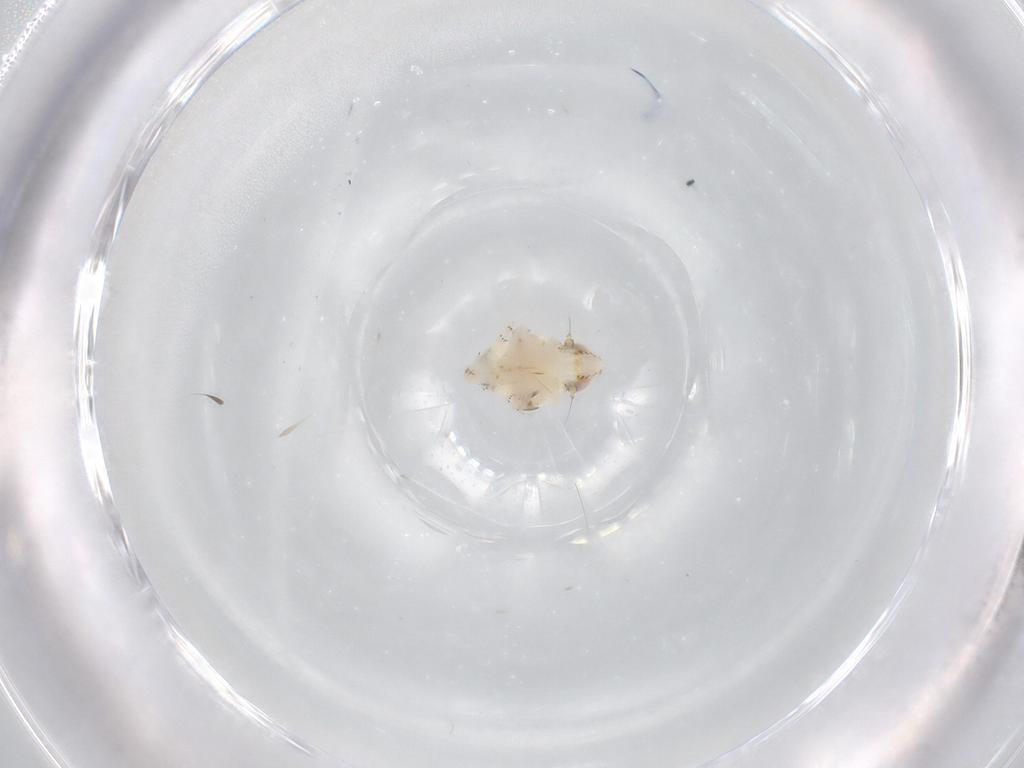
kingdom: Animalia
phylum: Arthropoda
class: Insecta
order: Hemiptera
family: Nogodinidae
